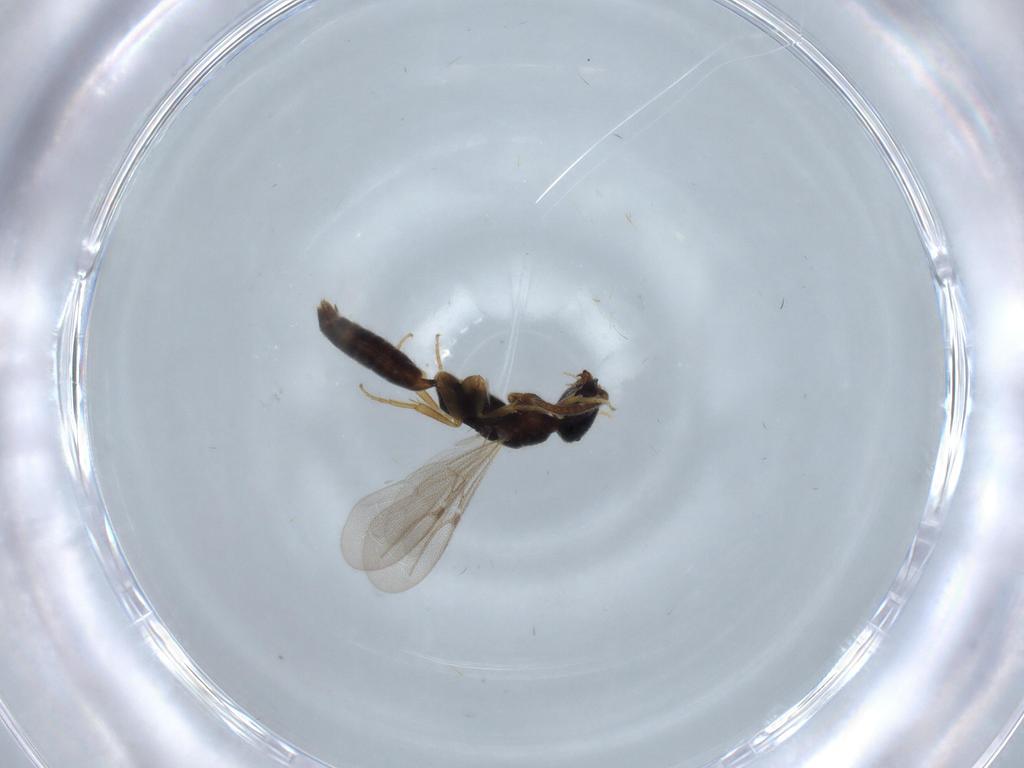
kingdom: Animalia
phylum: Arthropoda
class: Insecta
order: Hymenoptera
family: Bethylidae
